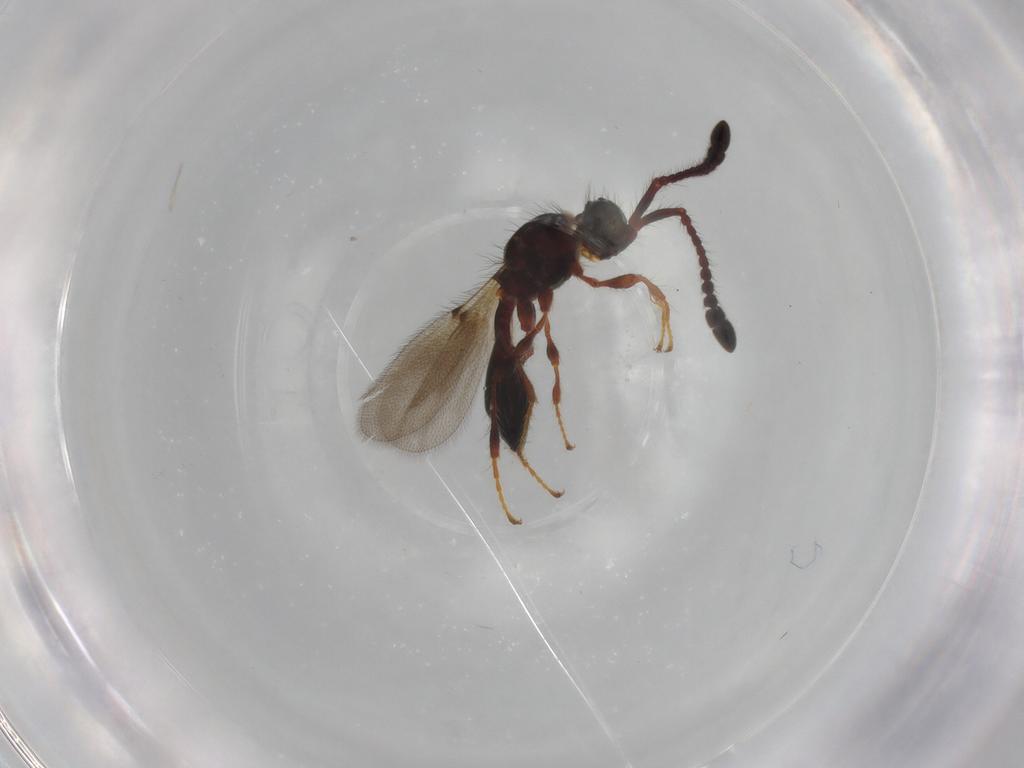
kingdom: Animalia
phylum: Arthropoda
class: Insecta
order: Hymenoptera
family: Diapriidae
